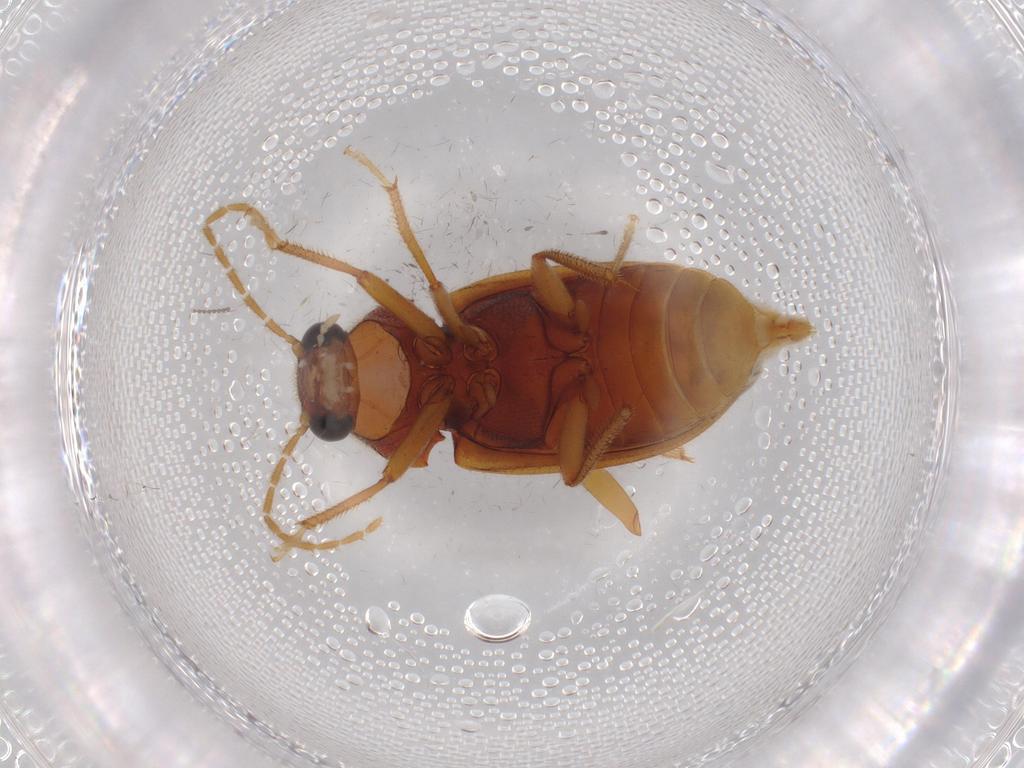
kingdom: Animalia
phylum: Arthropoda
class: Insecta
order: Coleoptera
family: Ptilodactylidae
